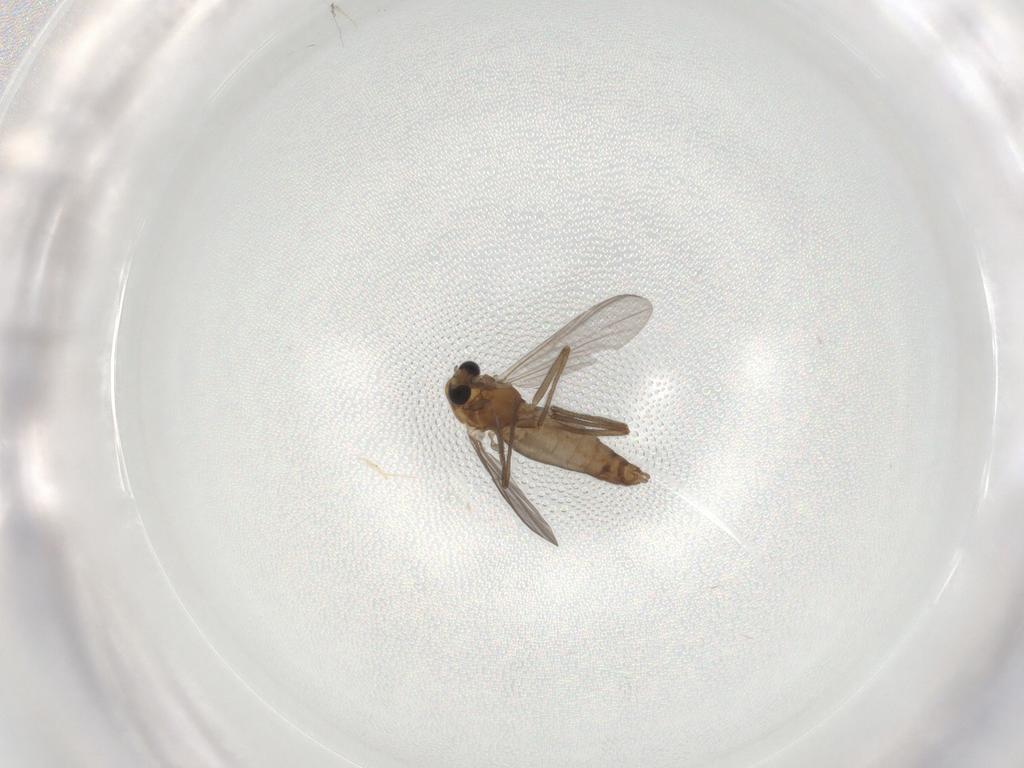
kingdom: Animalia
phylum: Arthropoda
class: Insecta
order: Diptera
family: Chironomidae
